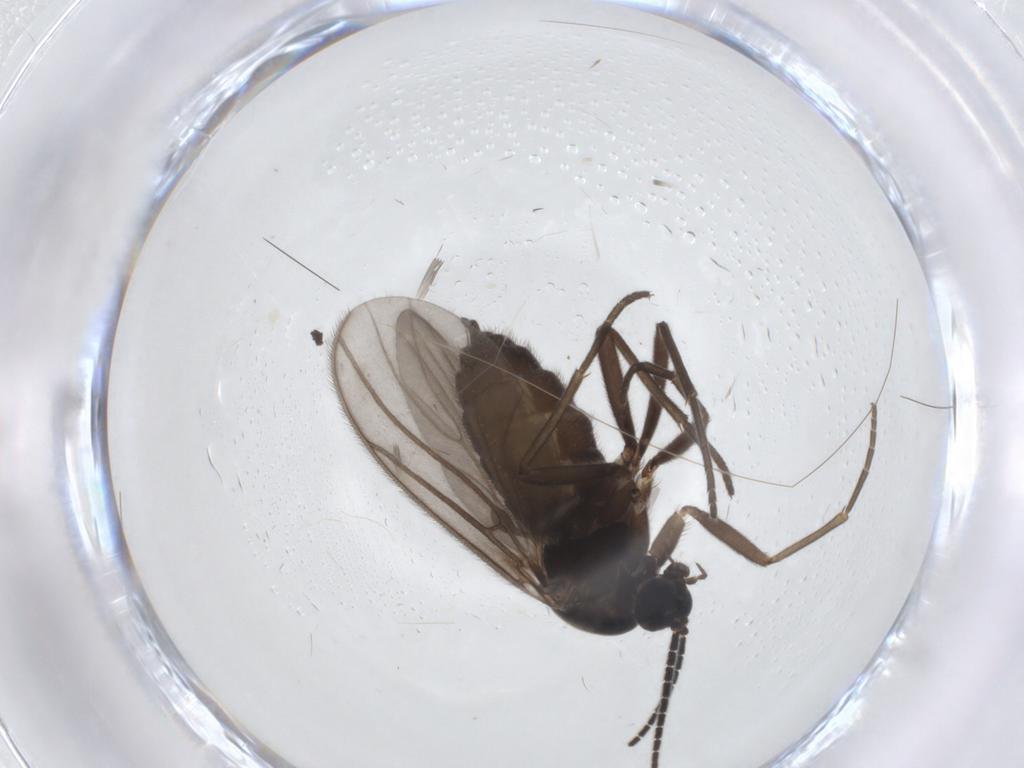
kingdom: Animalia
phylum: Arthropoda
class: Insecta
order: Diptera
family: Sciaridae
